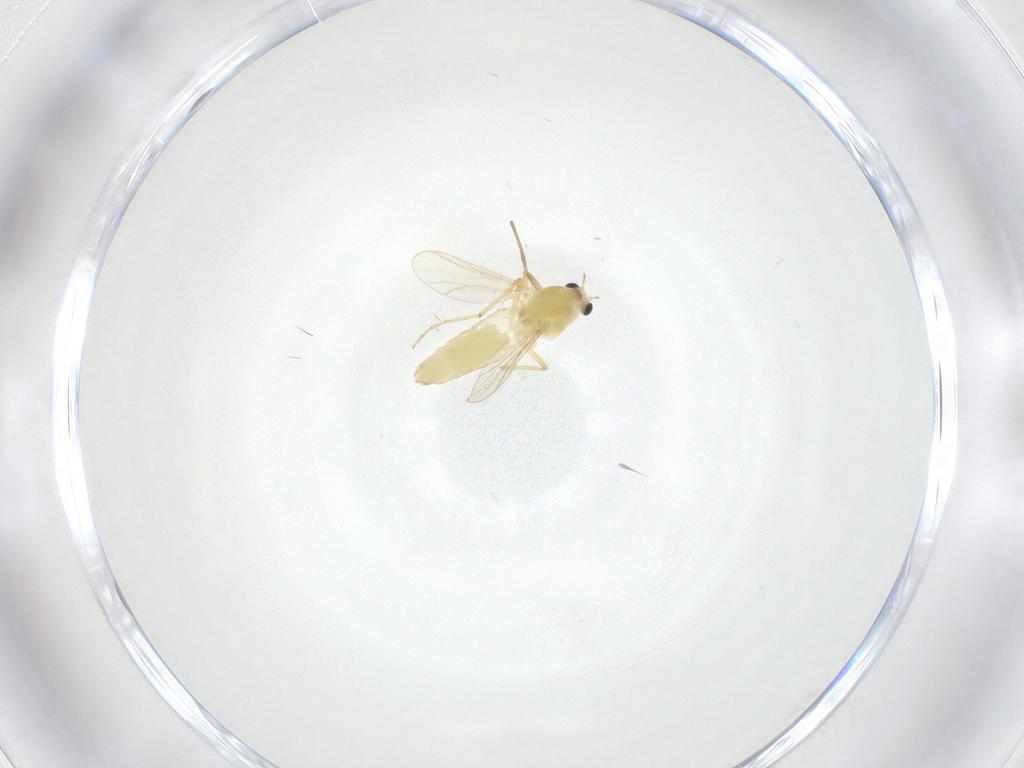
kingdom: Animalia
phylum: Arthropoda
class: Insecta
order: Diptera
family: Chironomidae
